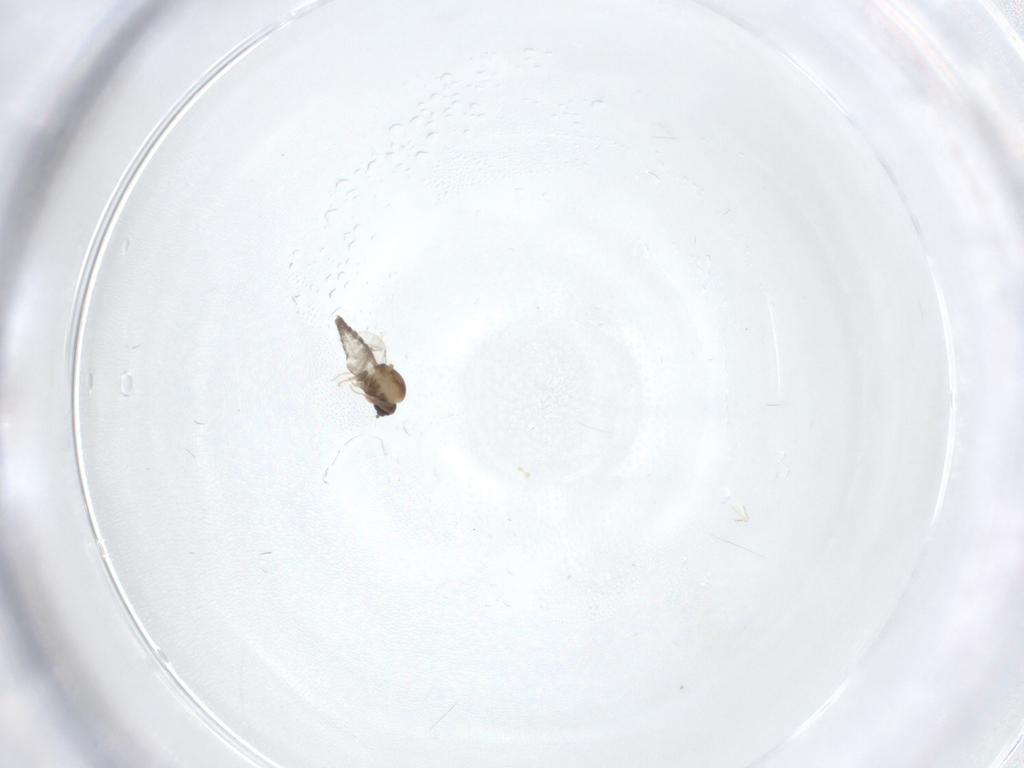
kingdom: Animalia
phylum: Arthropoda
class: Insecta
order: Diptera
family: Ceratopogonidae
